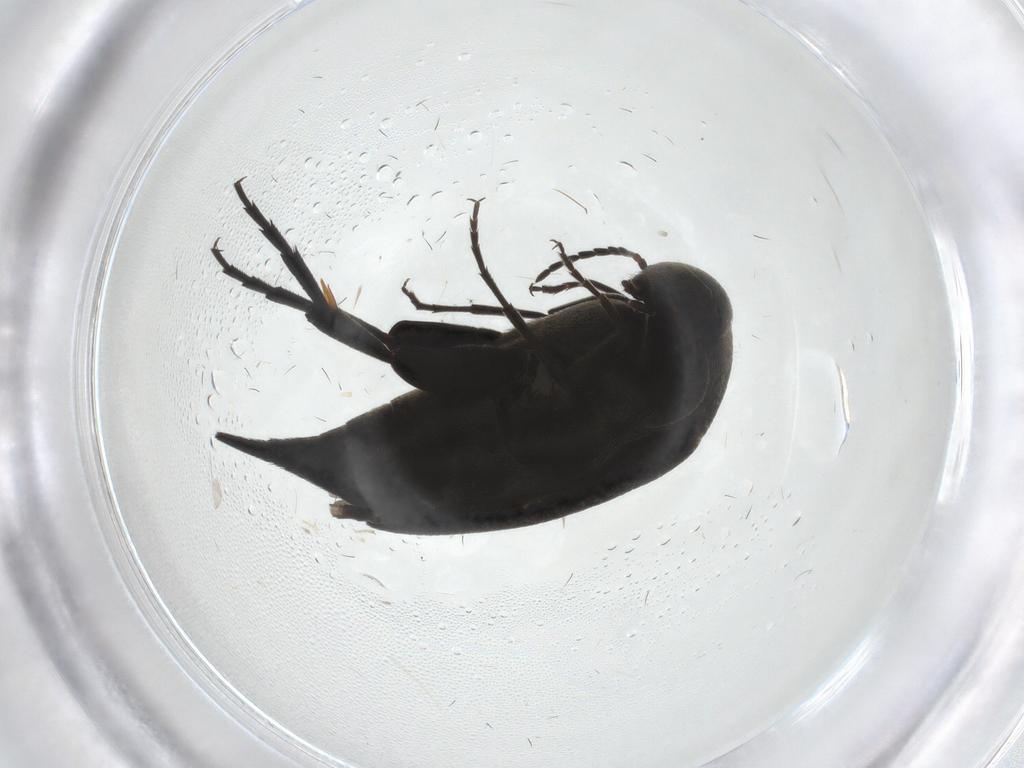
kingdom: Animalia
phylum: Arthropoda
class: Insecta
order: Coleoptera
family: Mordellidae
